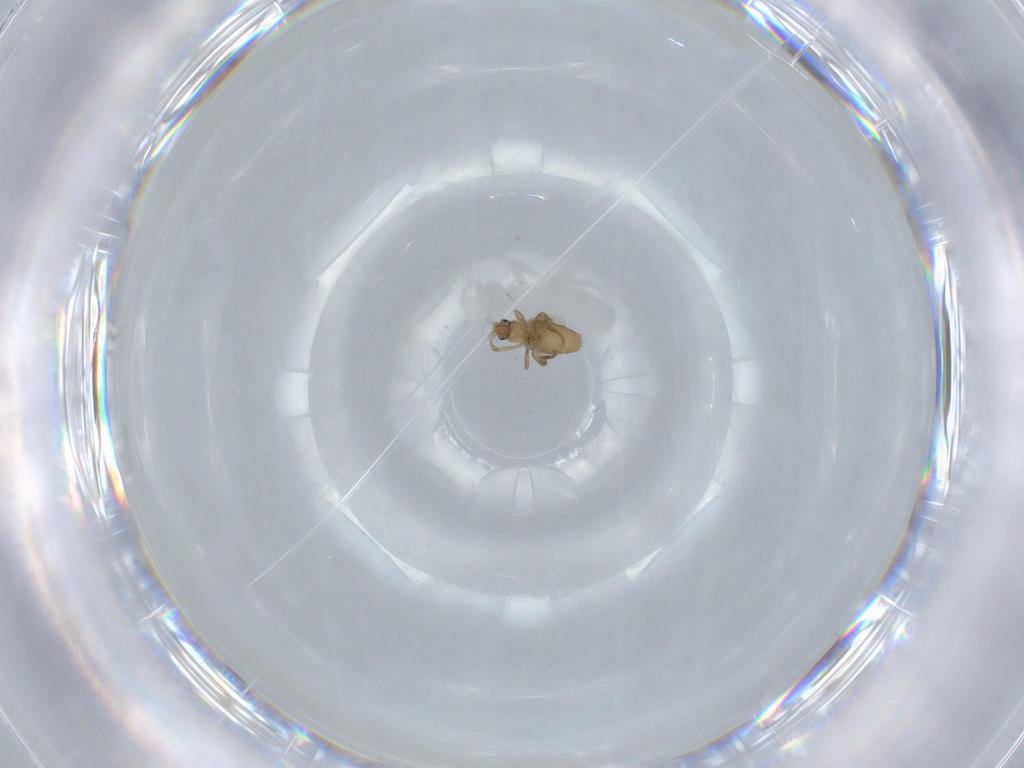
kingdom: Animalia
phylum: Arthropoda
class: Insecta
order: Diptera
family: Phoridae
